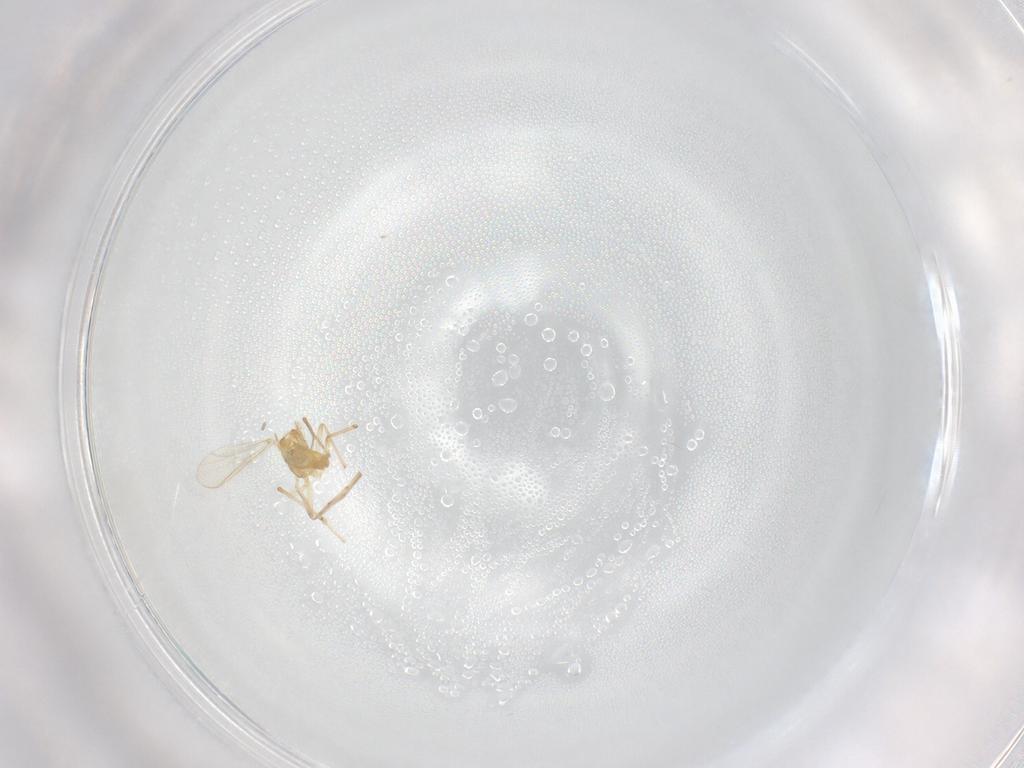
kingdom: Animalia
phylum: Arthropoda
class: Insecta
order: Diptera
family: Chironomidae
